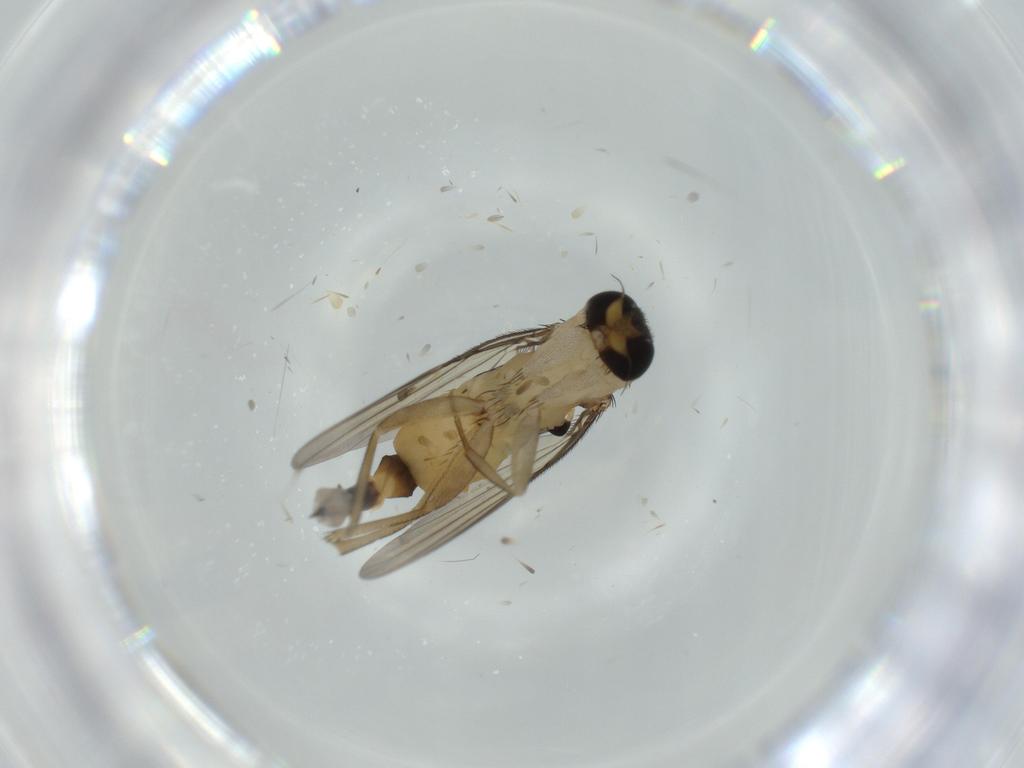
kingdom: Animalia
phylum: Arthropoda
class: Insecta
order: Diptera
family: Phoridae
